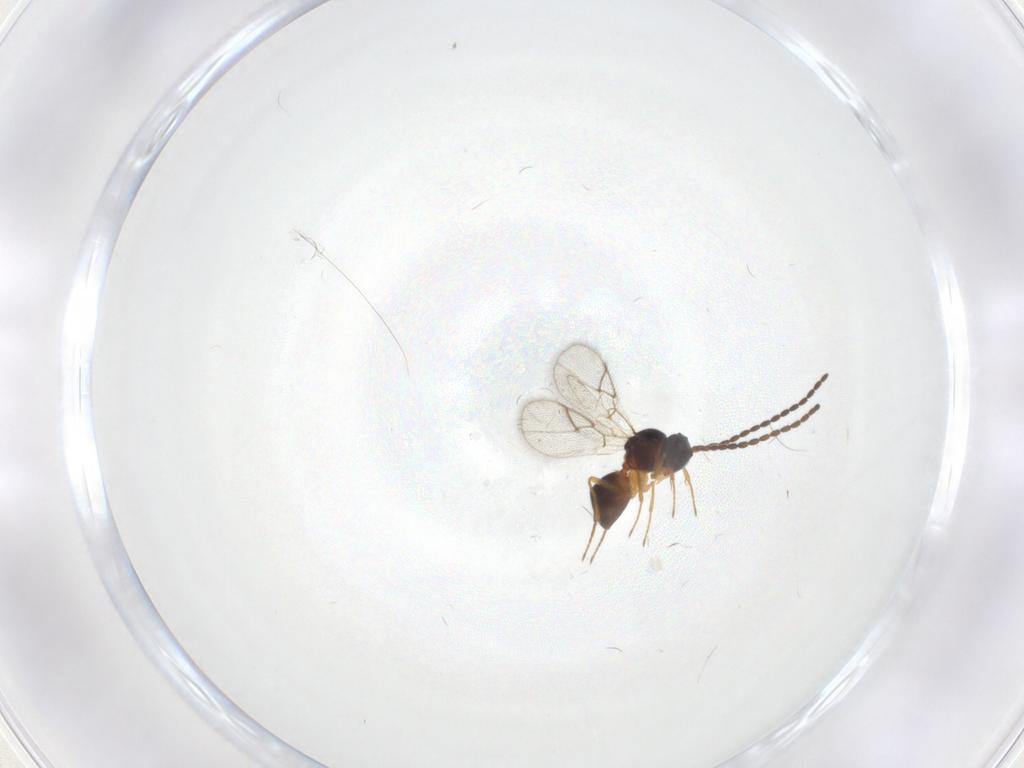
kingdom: Animalia
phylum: Arthropoda
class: Insecta
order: Hymenoptera
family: Figitidae
